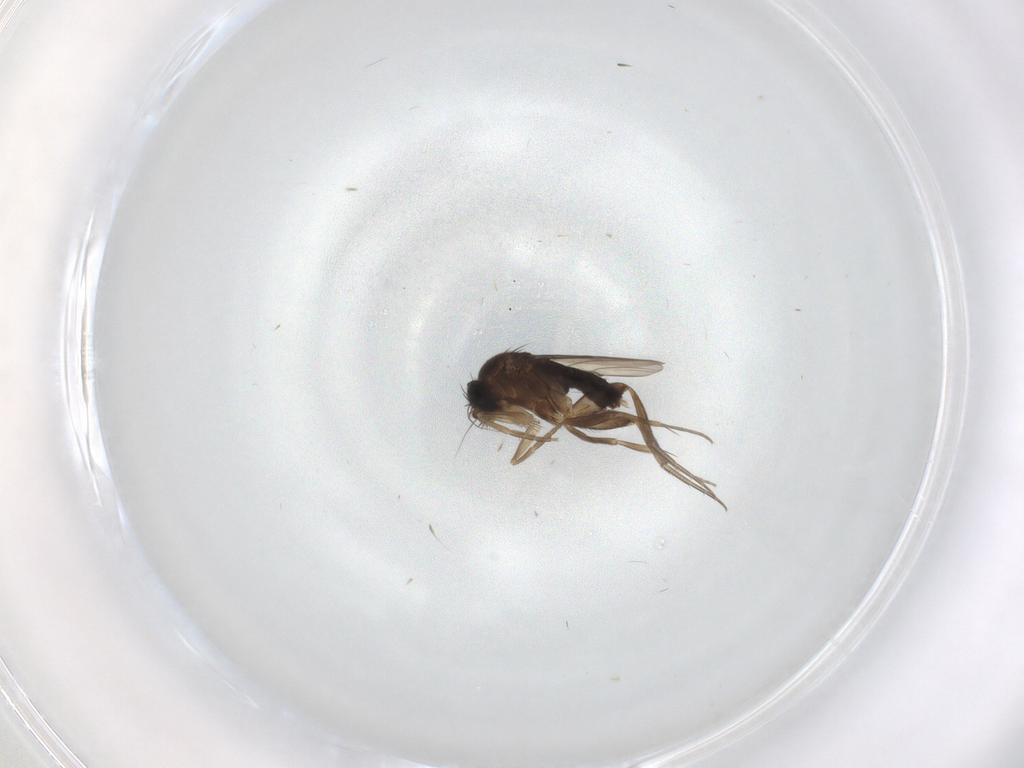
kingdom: Animalia
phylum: Arthropoda
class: Insecta
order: Diptera
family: Phoridae
